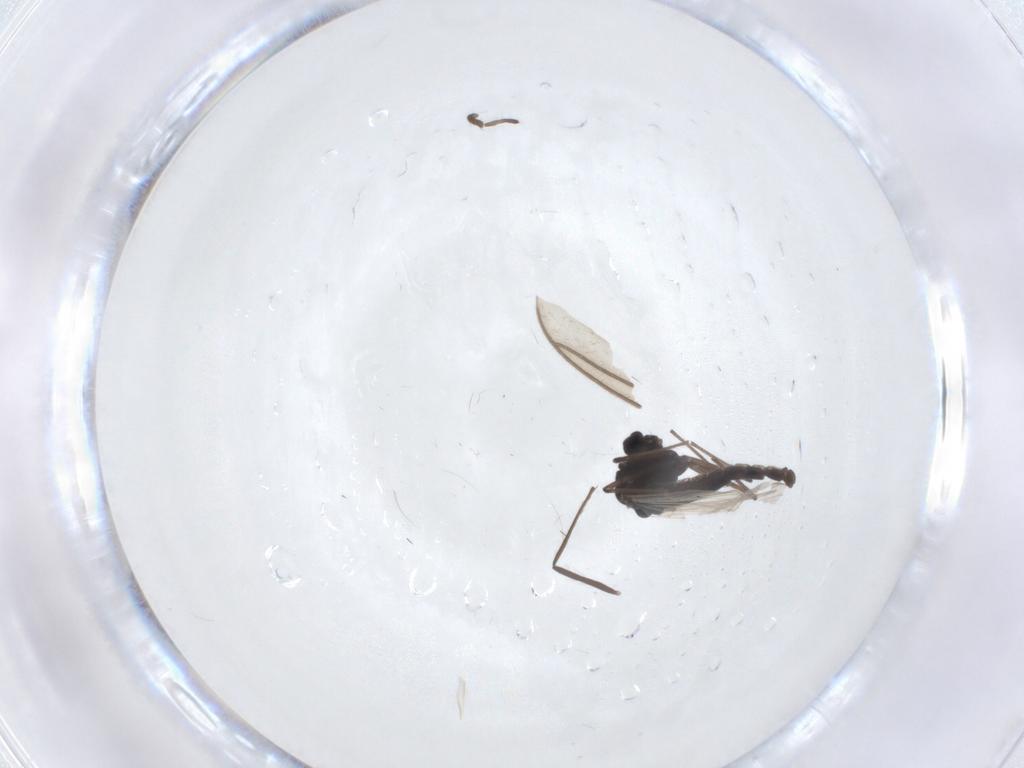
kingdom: Animalia
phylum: Arthropoda
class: Insecta
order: Diptera
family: Mycetophilidae
